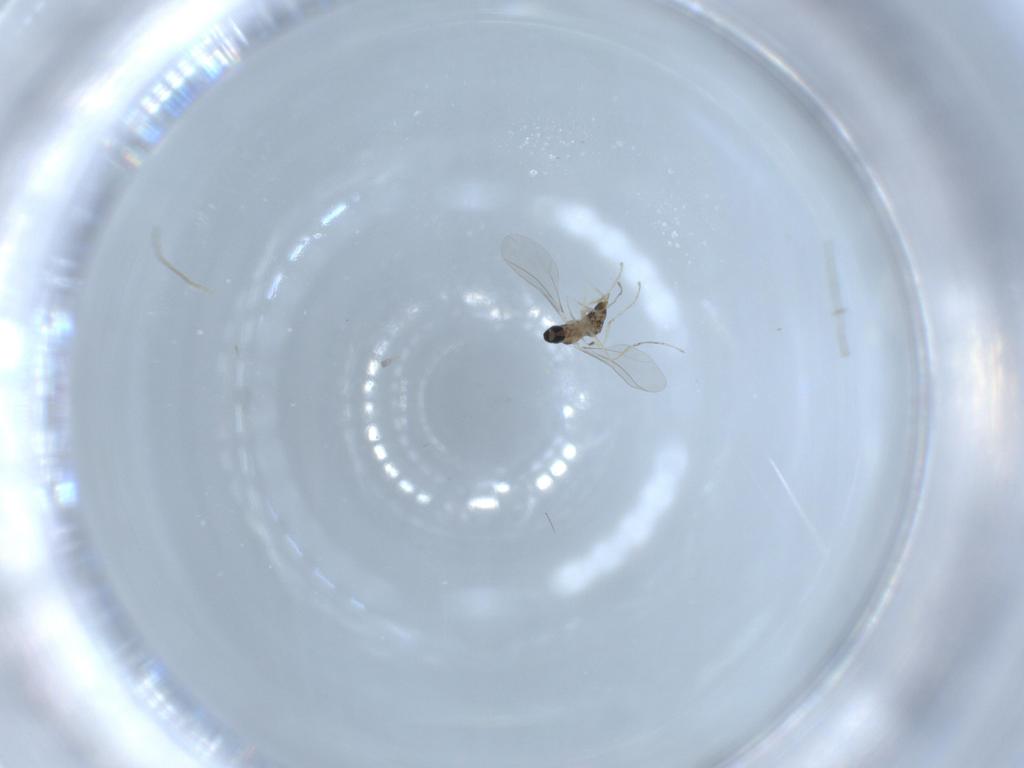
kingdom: Animalia
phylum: Arthropoda
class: Insecta
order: Diptera
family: Cecidomyiidae
